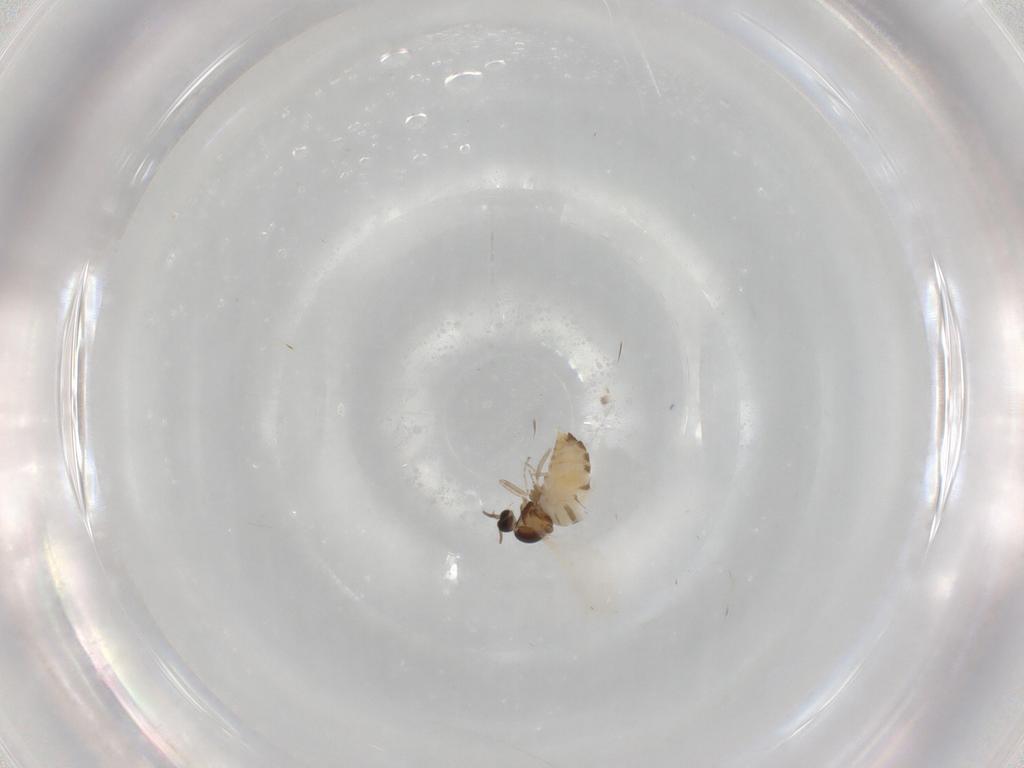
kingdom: Animalia
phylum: Arthropoda
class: Insecta
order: Diptera
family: Cecidomyiidae
